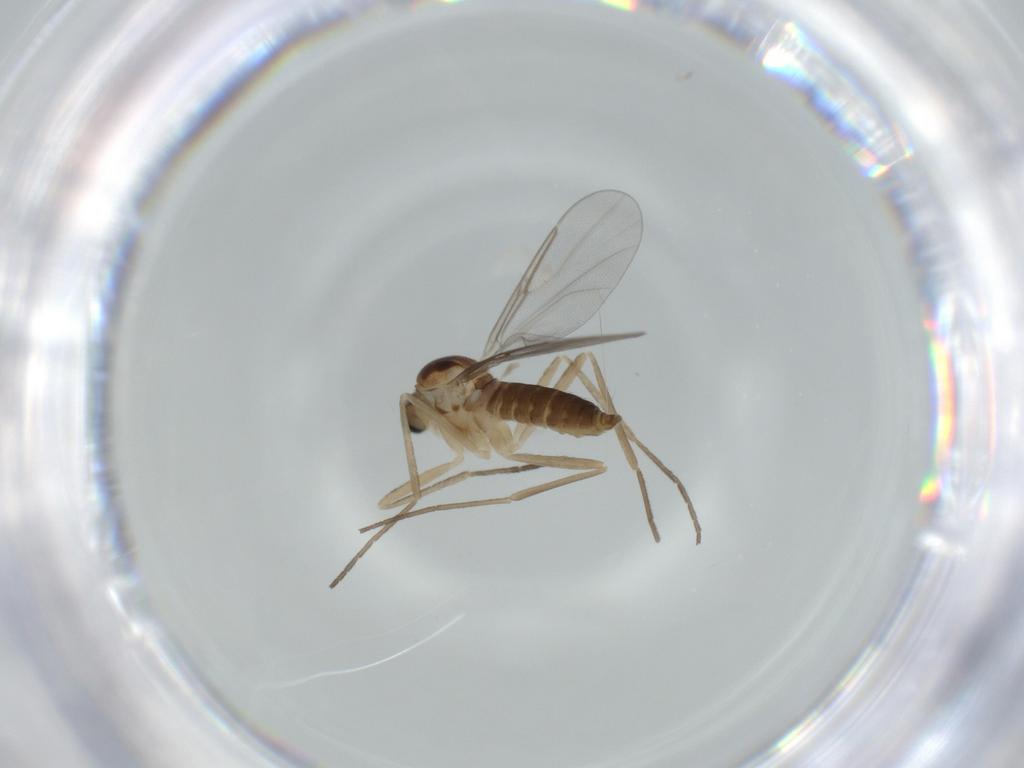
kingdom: Animalia
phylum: Arthropoda
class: Insecta
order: Diptera
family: Cecidomyiidae
